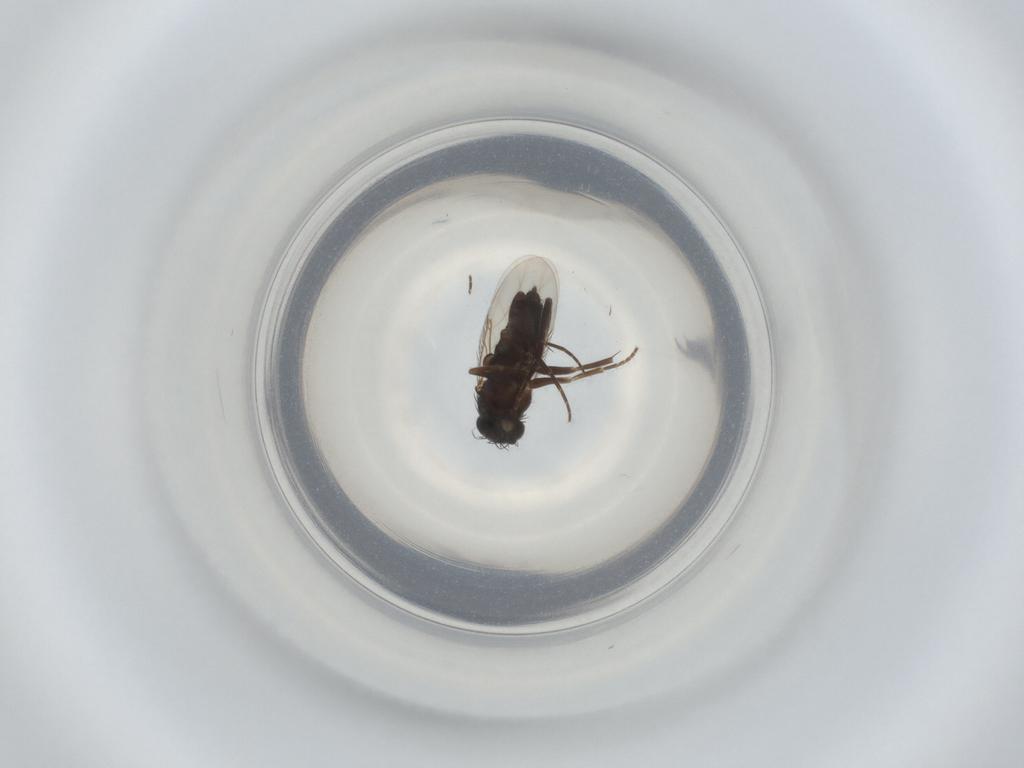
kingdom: Animalia
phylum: Arthropoda
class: Insecta
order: Diptera
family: Phoridae
